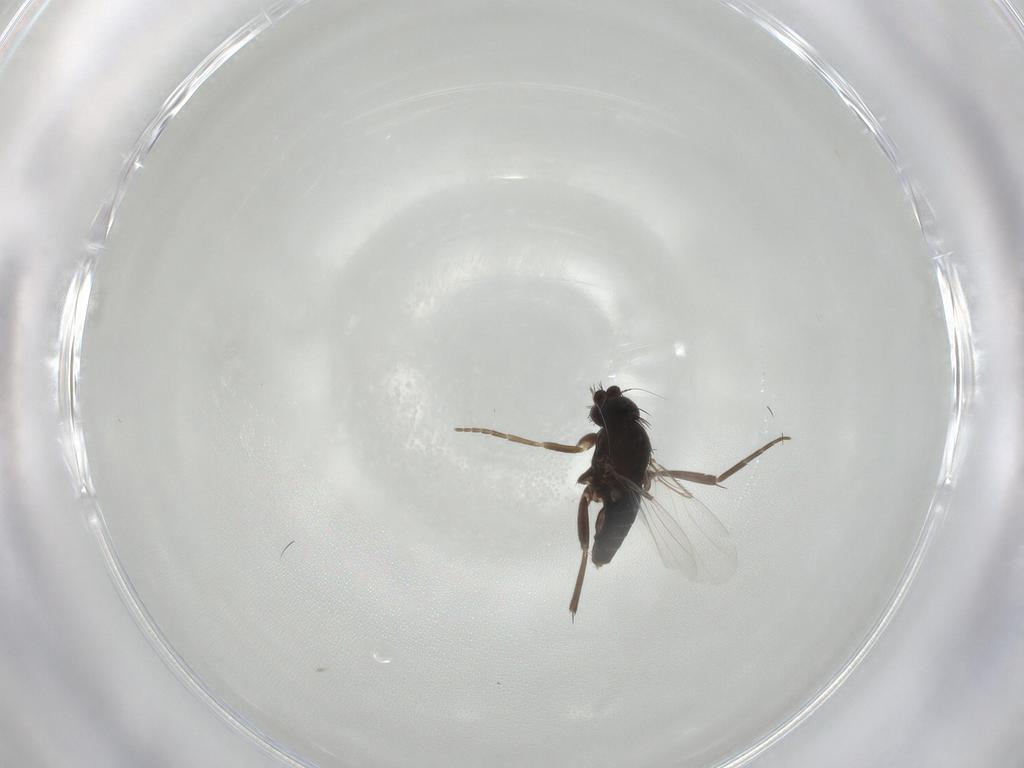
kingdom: Animalia
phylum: Arthropoda
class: Insecta
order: Diptera
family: Phoridae
